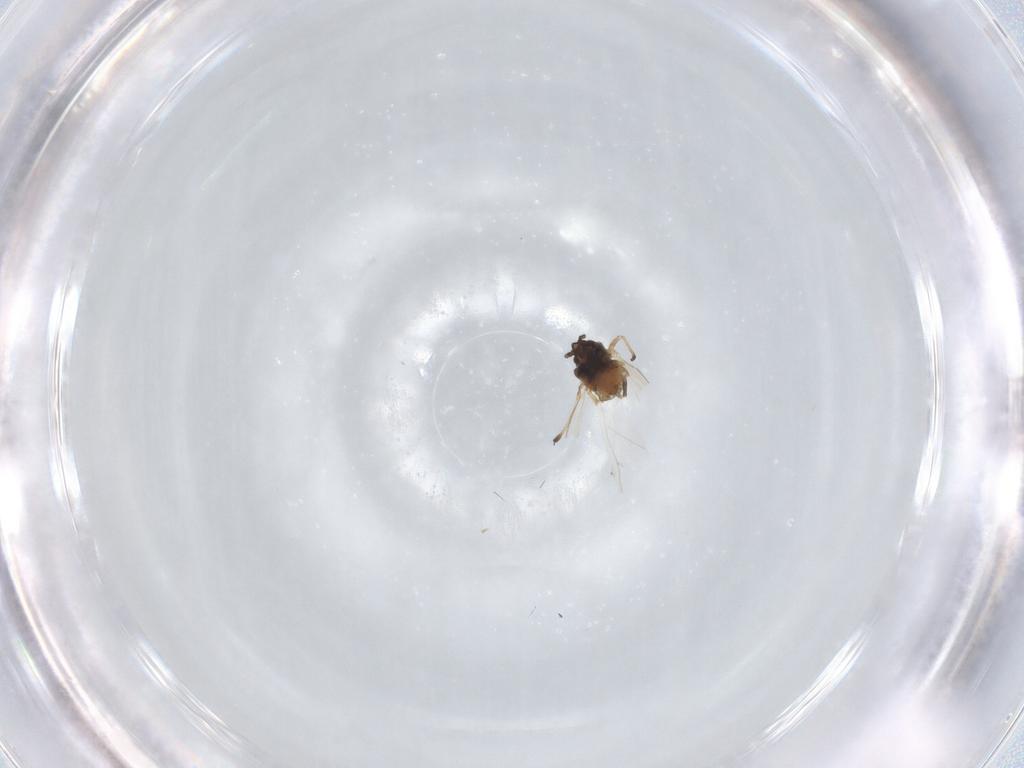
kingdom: Animalia
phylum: Arthropoda
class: Insecta
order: Hemiptera
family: Aphididae
